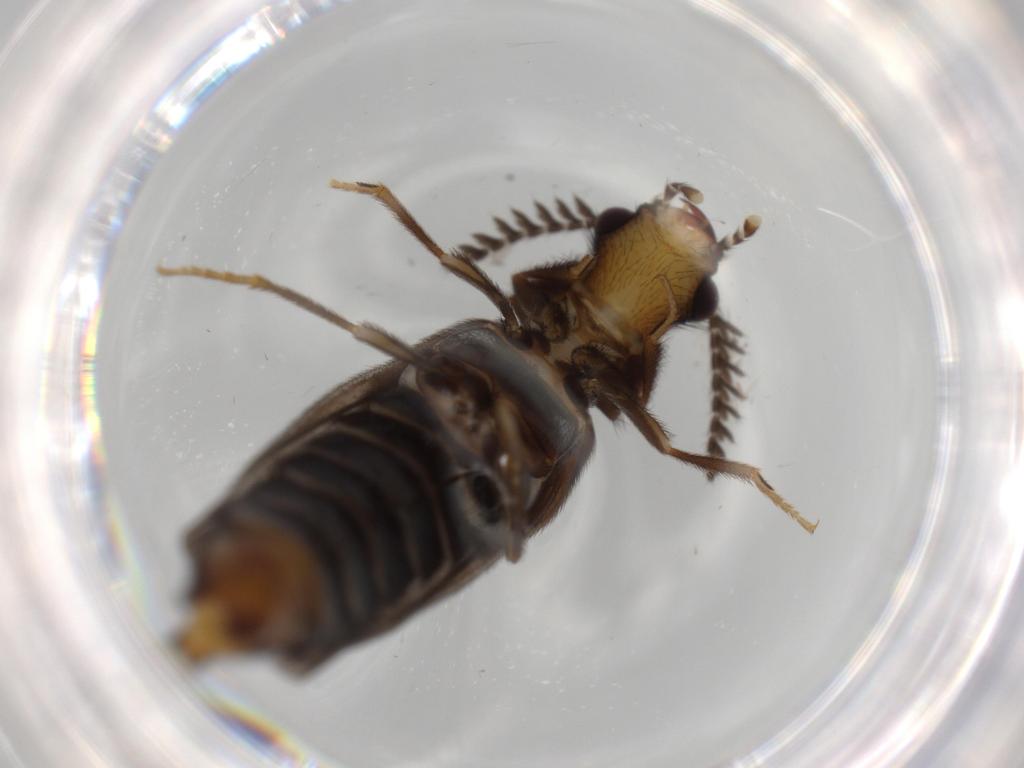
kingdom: Animalia
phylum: Arthropoda
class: Insecta
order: Coleoptera
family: Phengodidae
